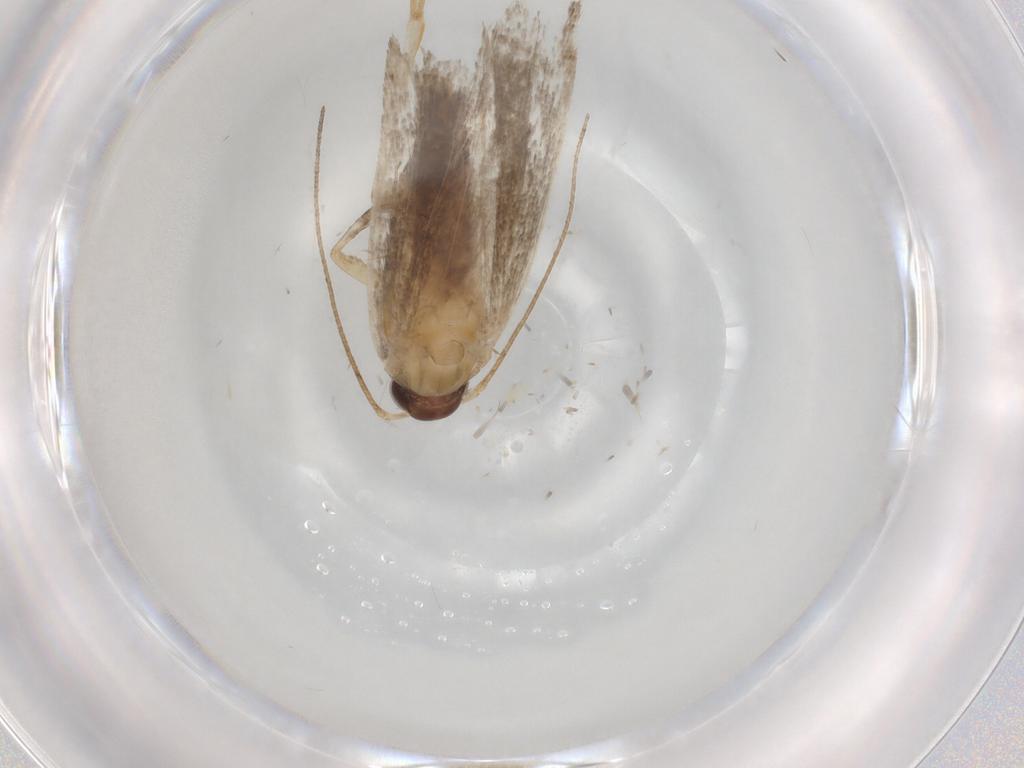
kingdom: Animalia
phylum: Arthropoda
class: Insecta
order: Lepidoptera
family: Gelechiidae
